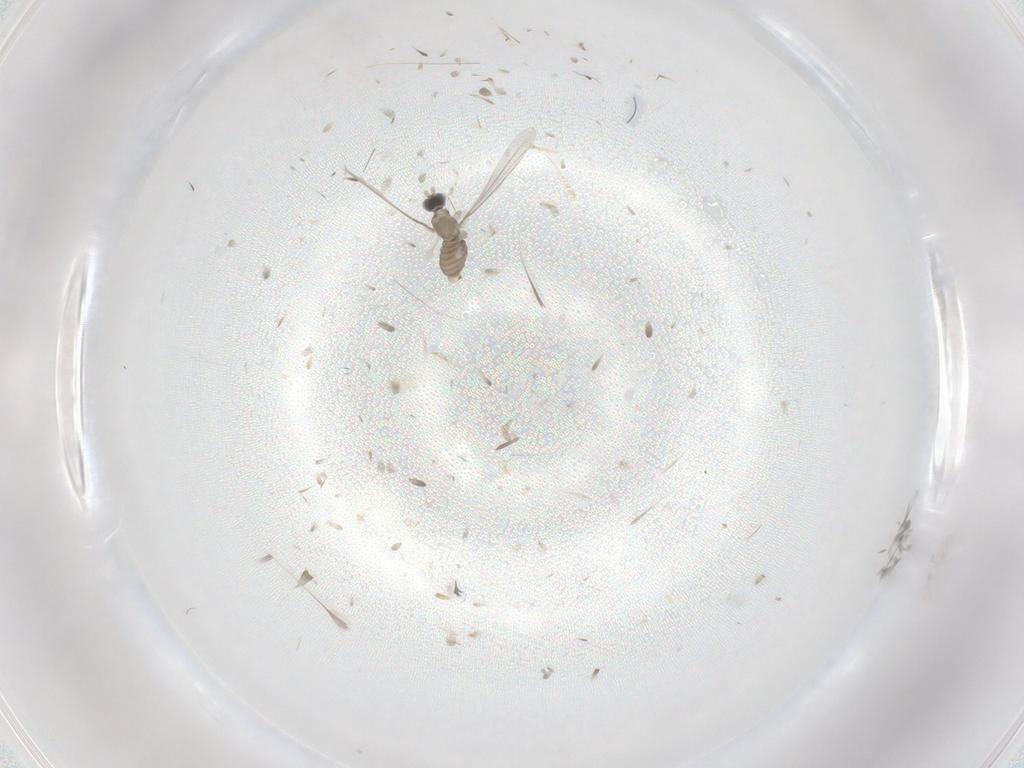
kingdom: Animalia
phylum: Arthropoda
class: Insecta
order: Diptera
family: Cecidomyiidae
